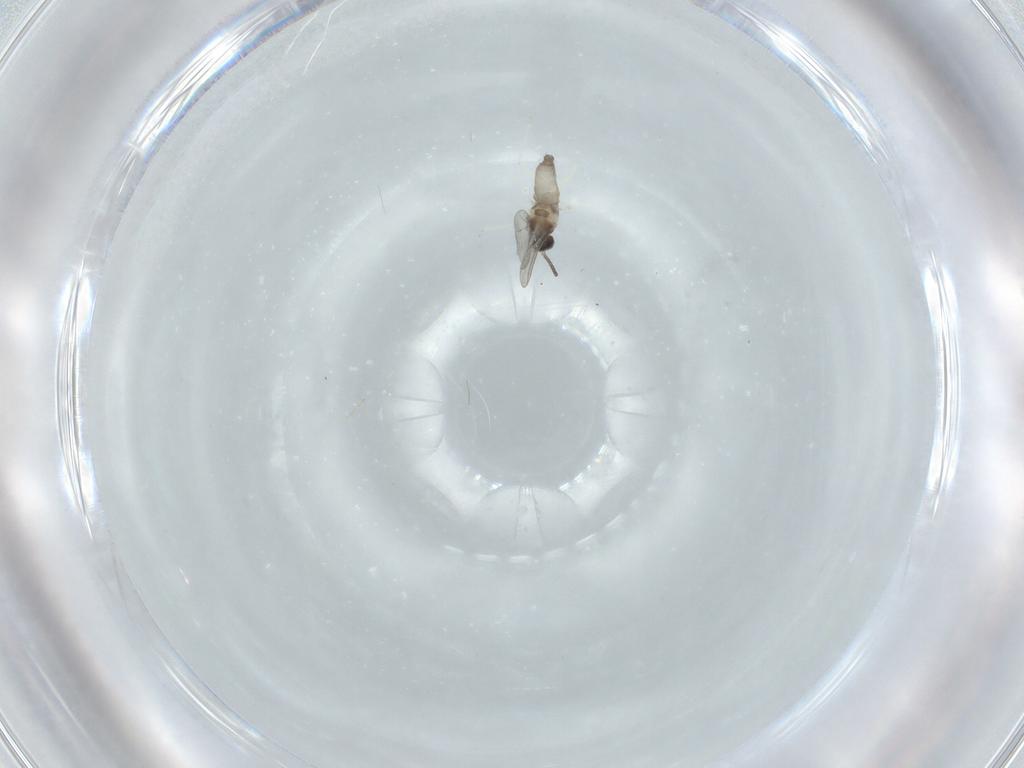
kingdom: Animalia
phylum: Arthropoda
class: Insecta
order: Diptera
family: Cecidomyiidae
